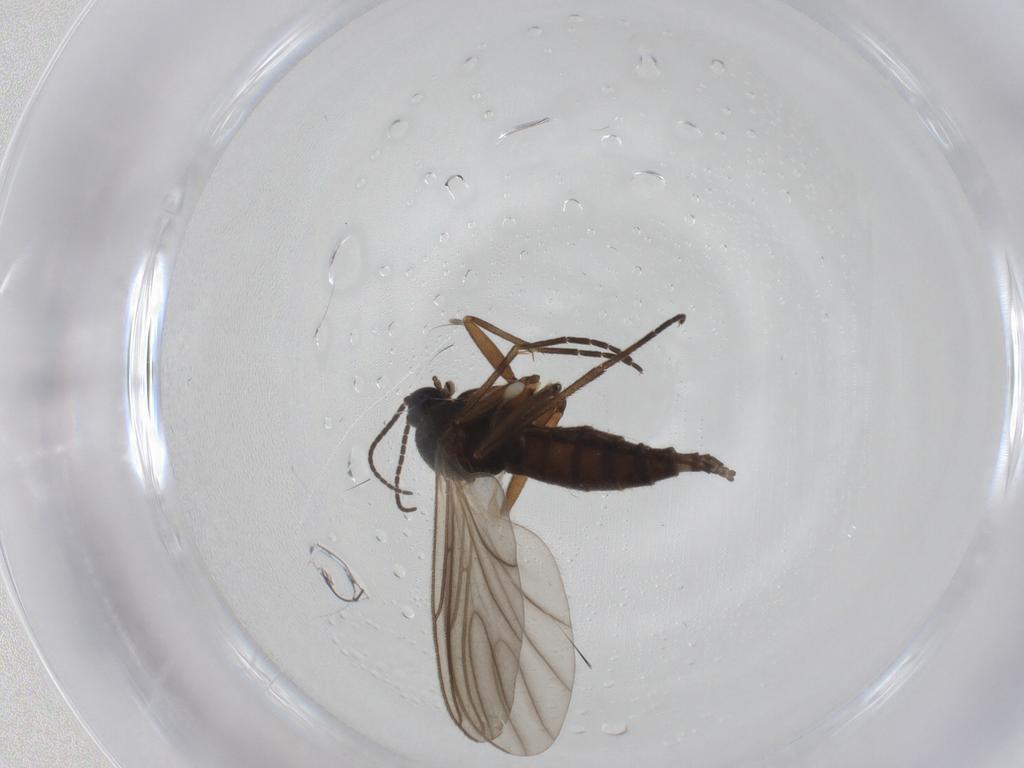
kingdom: Animalia
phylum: Arthropoda
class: Insecta
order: Diptera
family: Sciaridae
